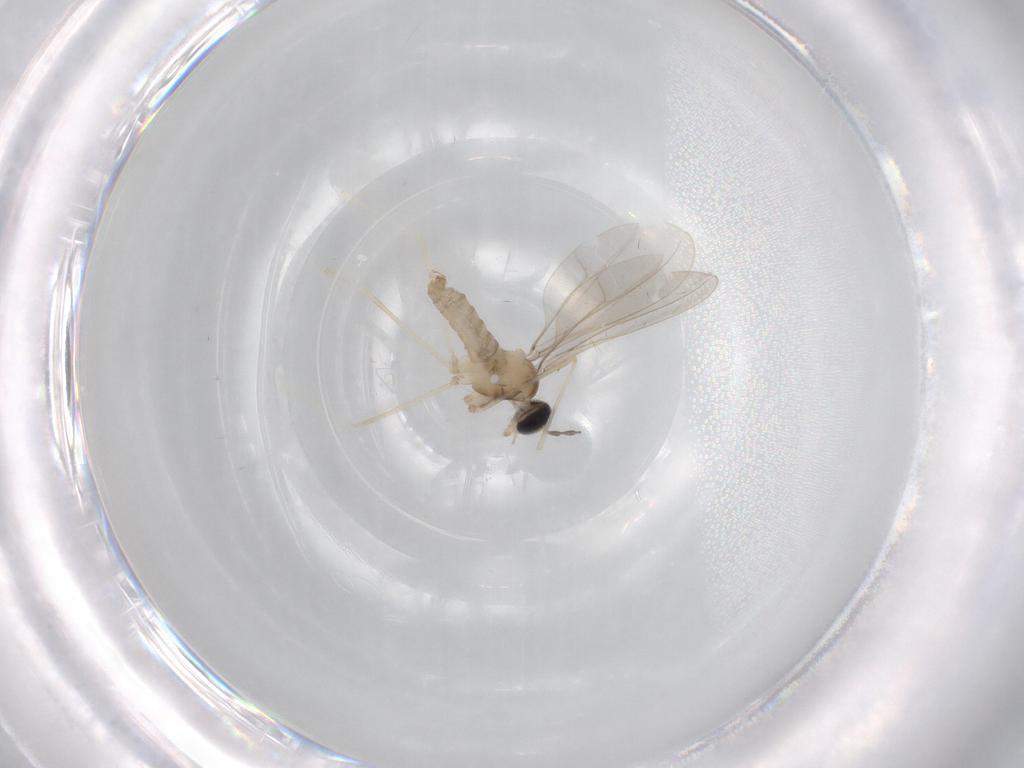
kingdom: Animalia
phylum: Arthropoda
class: Insecta
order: Diptera
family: Cecidomyiidae
